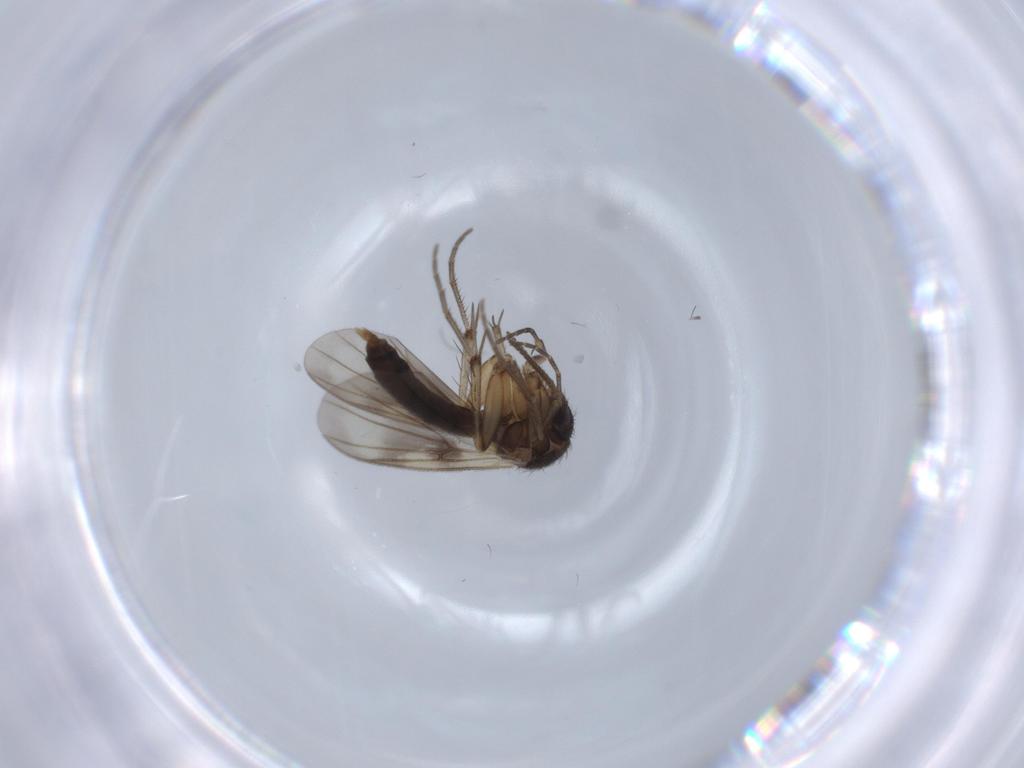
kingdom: Animalia
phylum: Arthropoda
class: Insecta
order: Diptera
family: Mycetophilidae
